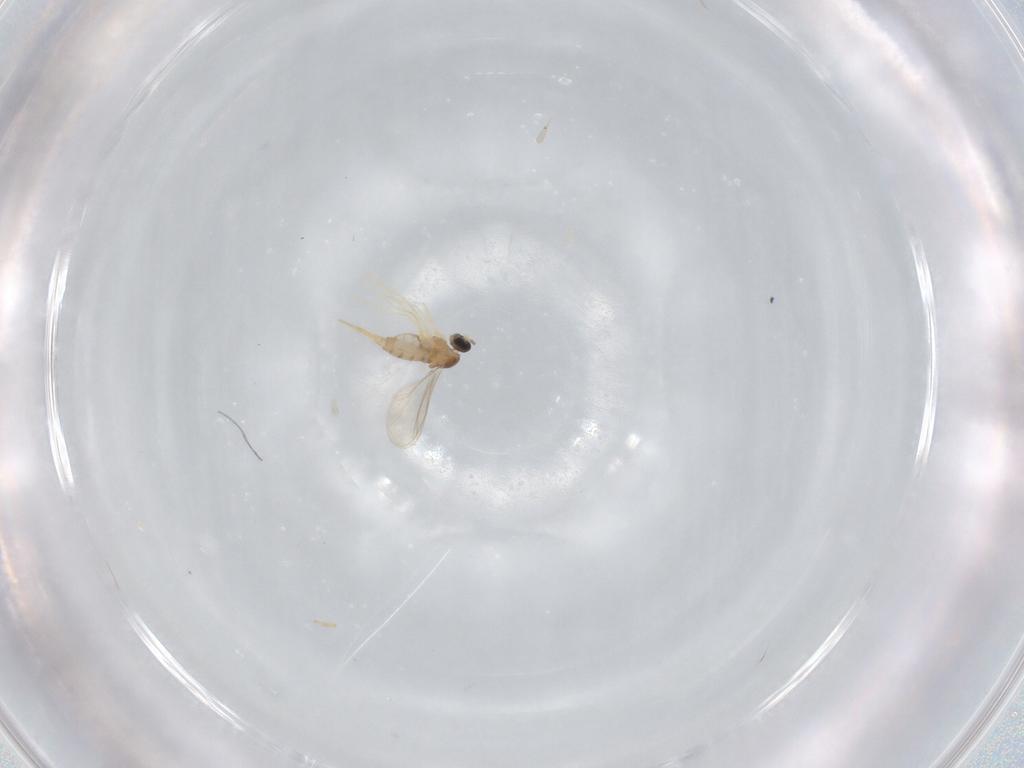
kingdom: Animalia
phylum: Arthropoda
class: Insecta
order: Diptera
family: Cecidomyiidae
